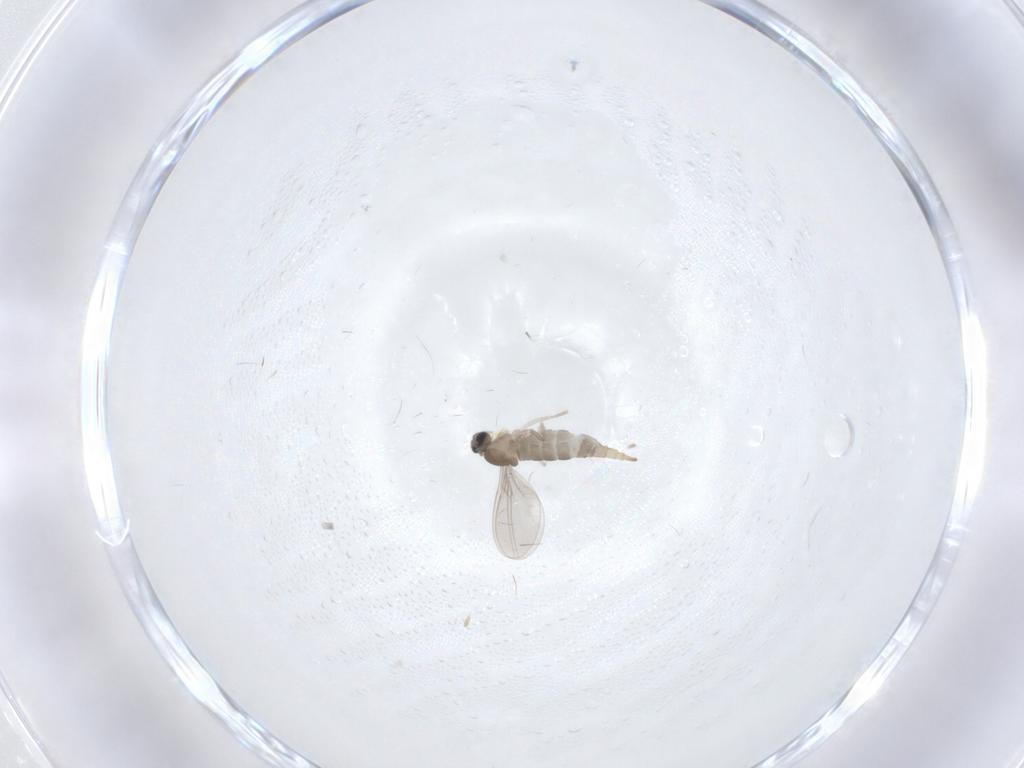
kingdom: Animalia
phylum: Arthropoda
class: Insecta
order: Diptera
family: Cecidomyiidae
